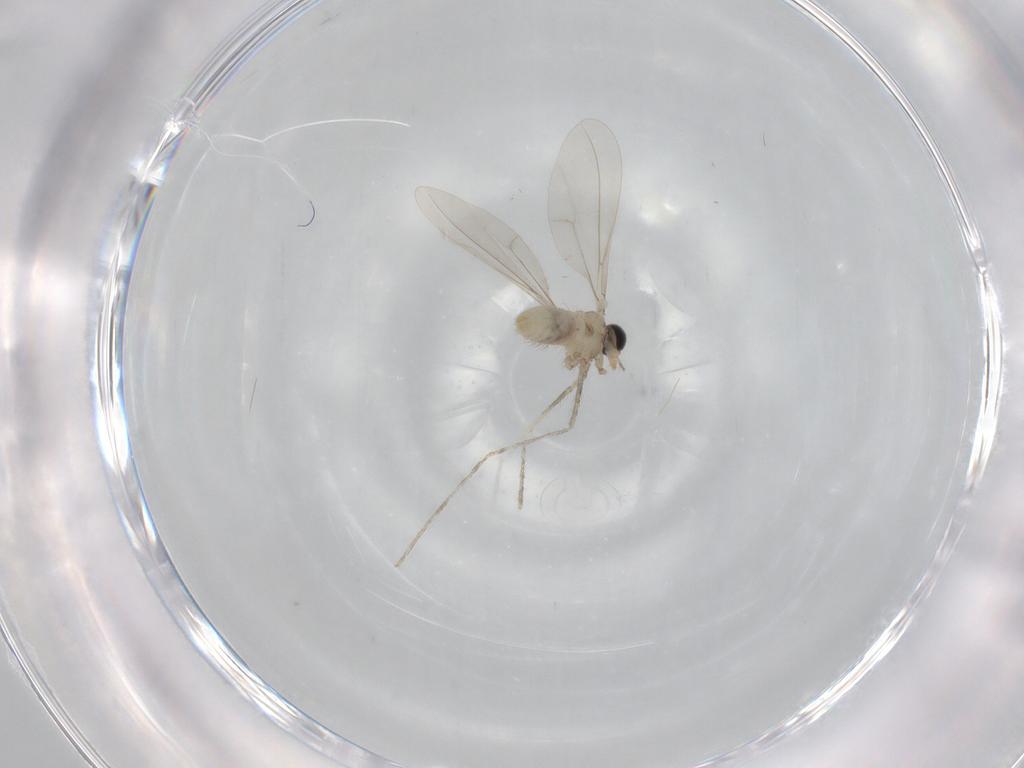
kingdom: Animalia
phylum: Arthropoda
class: Insecta
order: Diptera
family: Cecidomyiidae
